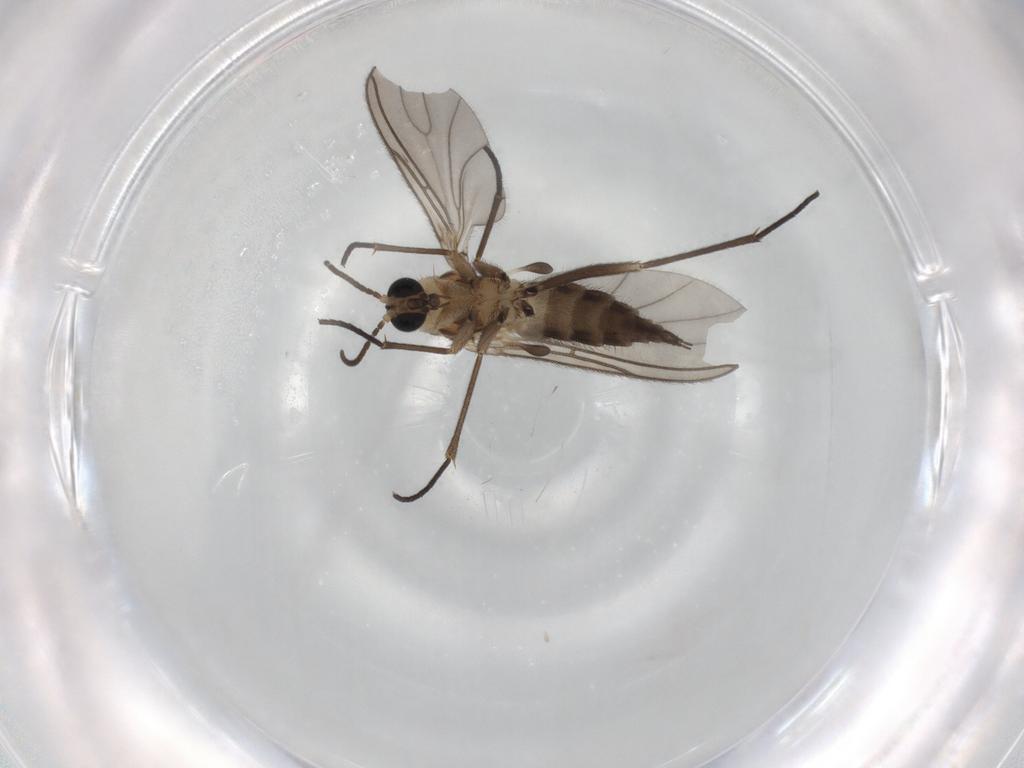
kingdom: Animalia
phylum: Arthropoda
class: Insecta
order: Diptera
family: Sciaridae
